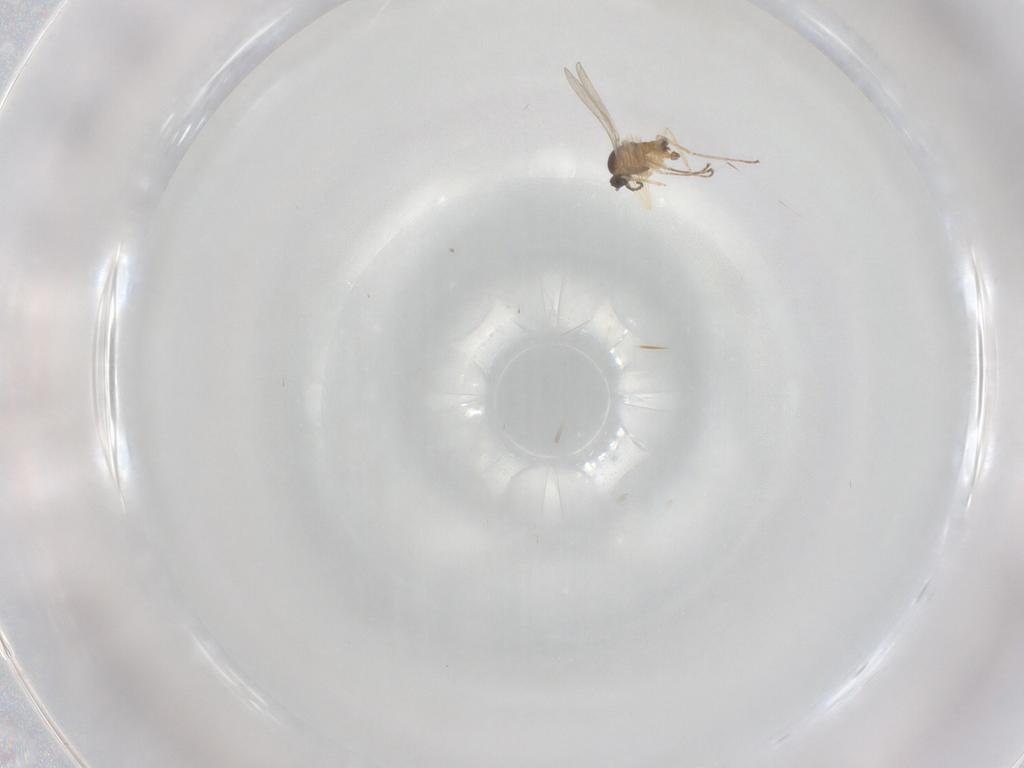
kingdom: Animalia
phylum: Arthropoda
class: Insecta
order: Diptera
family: Cecidomyiidae
